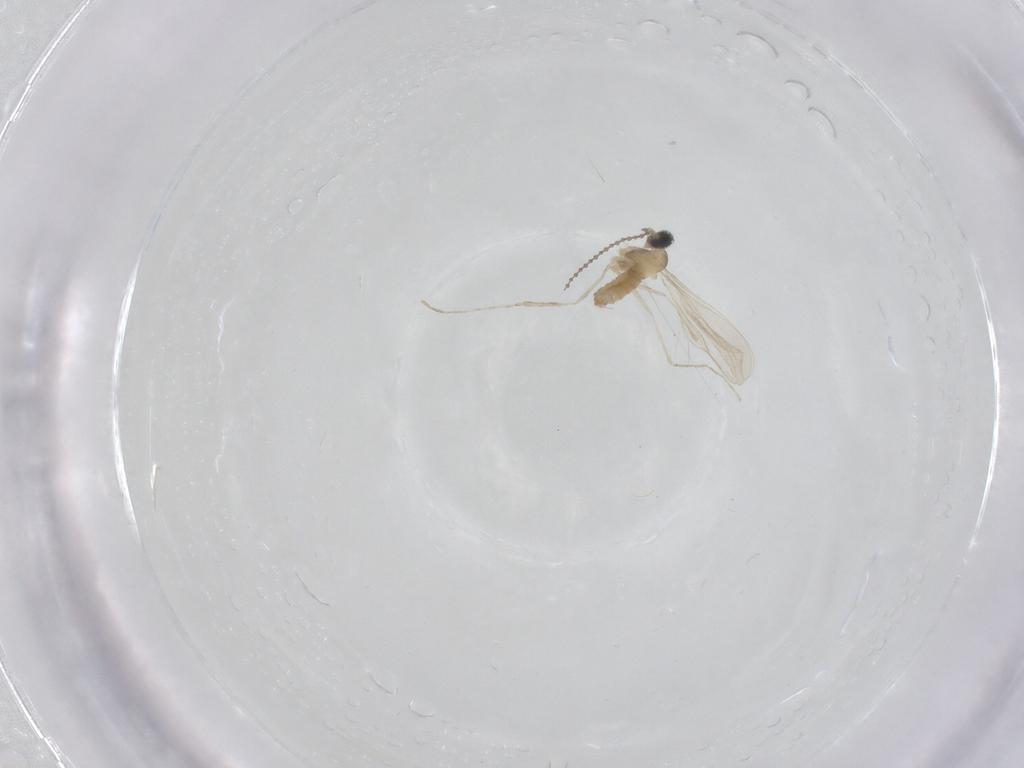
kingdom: Animalia
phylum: Arthropoda
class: Insecta
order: Diptera
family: Cecidomyiidae
